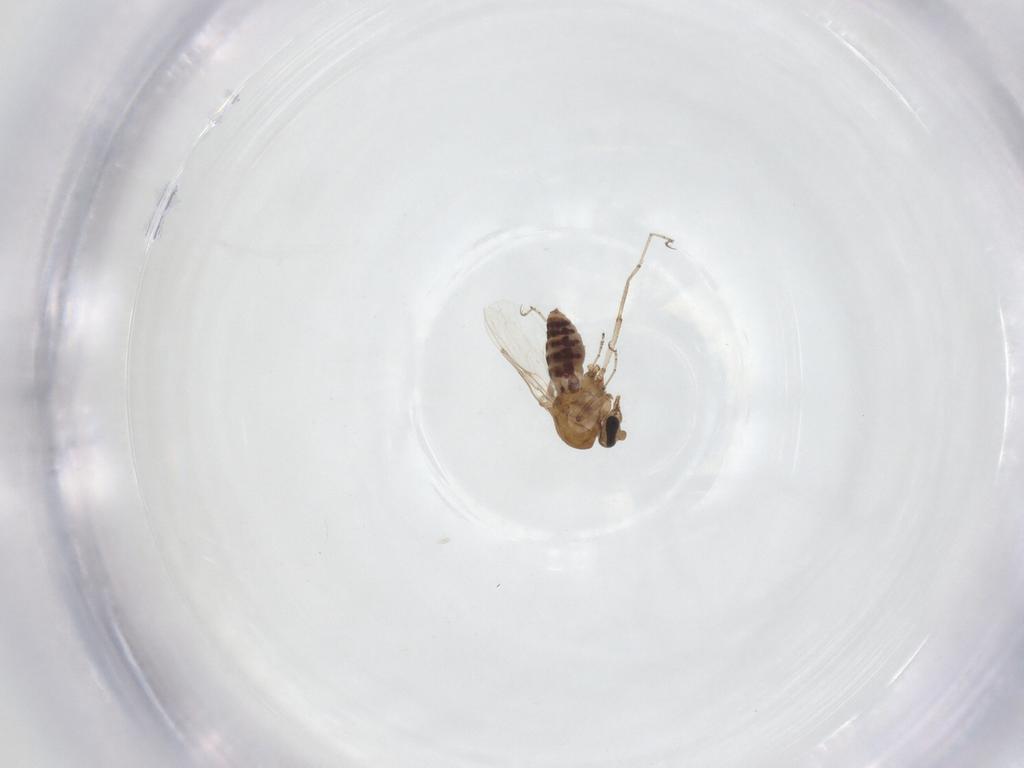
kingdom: Animalia
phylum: Arthropoda
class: Insecta
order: Diptera
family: Ceratopogonidae
